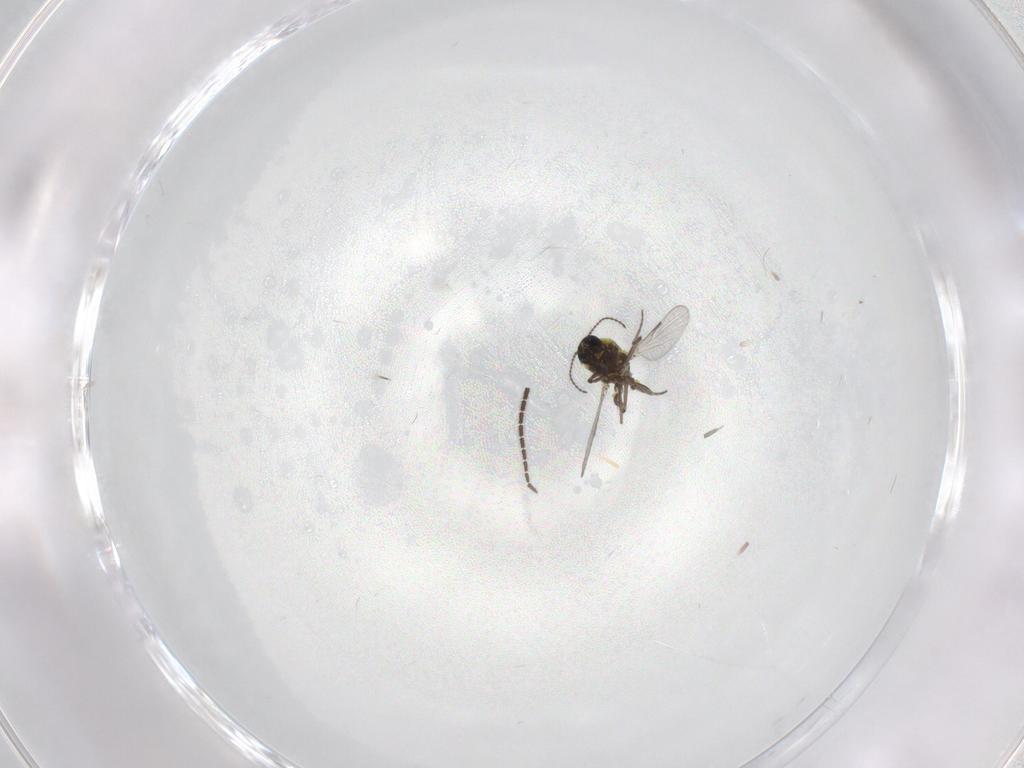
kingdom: Animalia
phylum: Arthropoda
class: Insecta
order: Diptera
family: Ceratopogonidae
